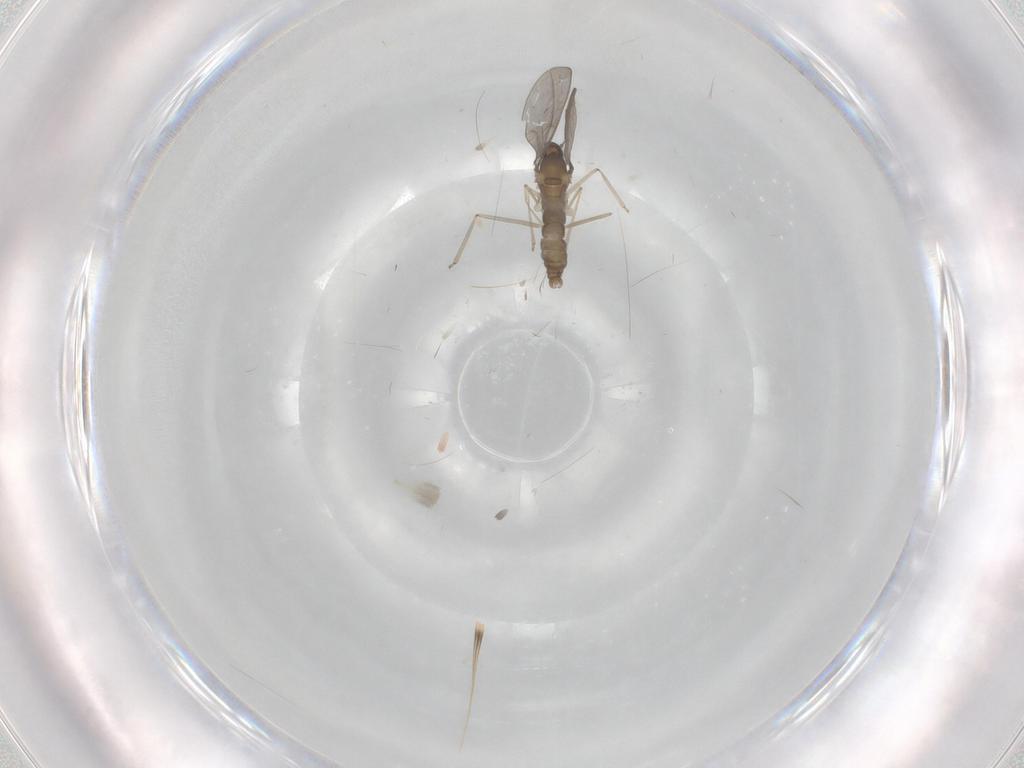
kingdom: Animalia
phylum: Arthropoda
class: Insecta
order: Diptera
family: Cecidomyiidae
